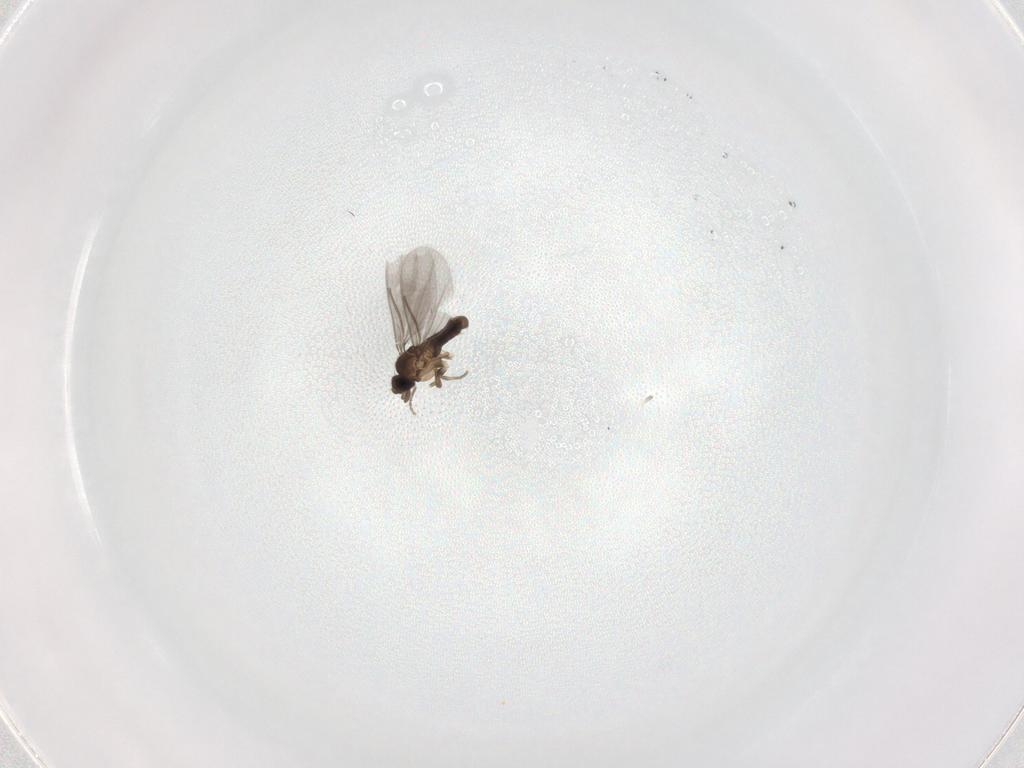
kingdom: Animalia
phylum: Arthropoda
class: Insecta
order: Diptera
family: Phoridae
